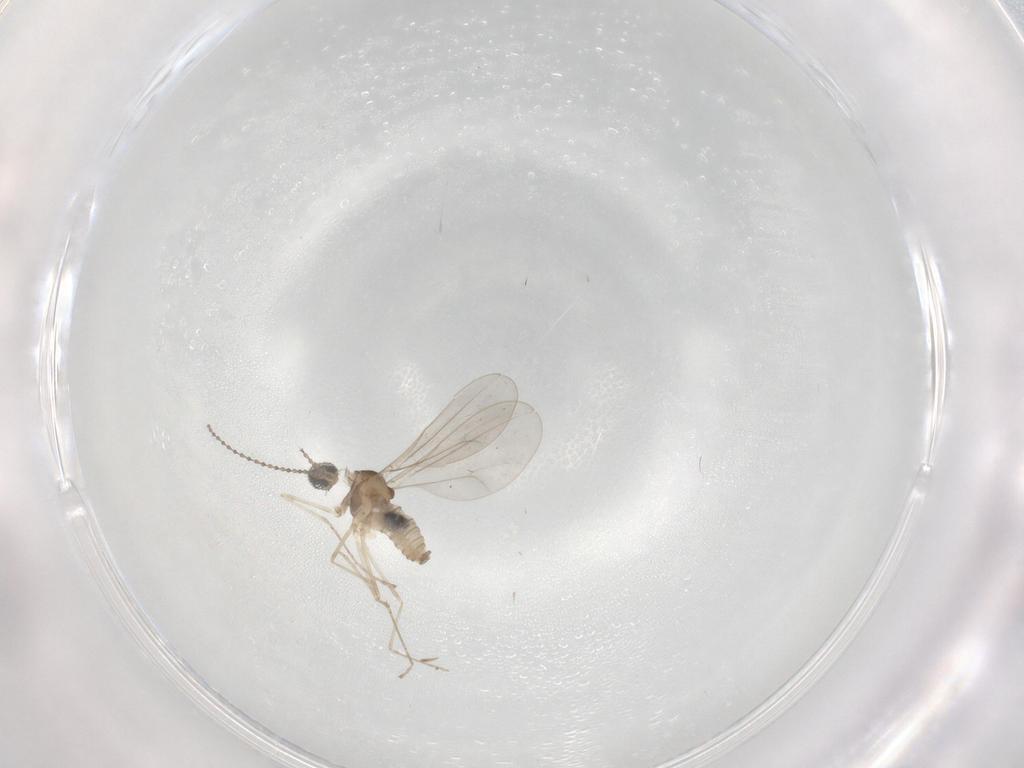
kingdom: Animalia
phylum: Arthropoda
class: Insecta
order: Diptera
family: Cecidomyiidae
